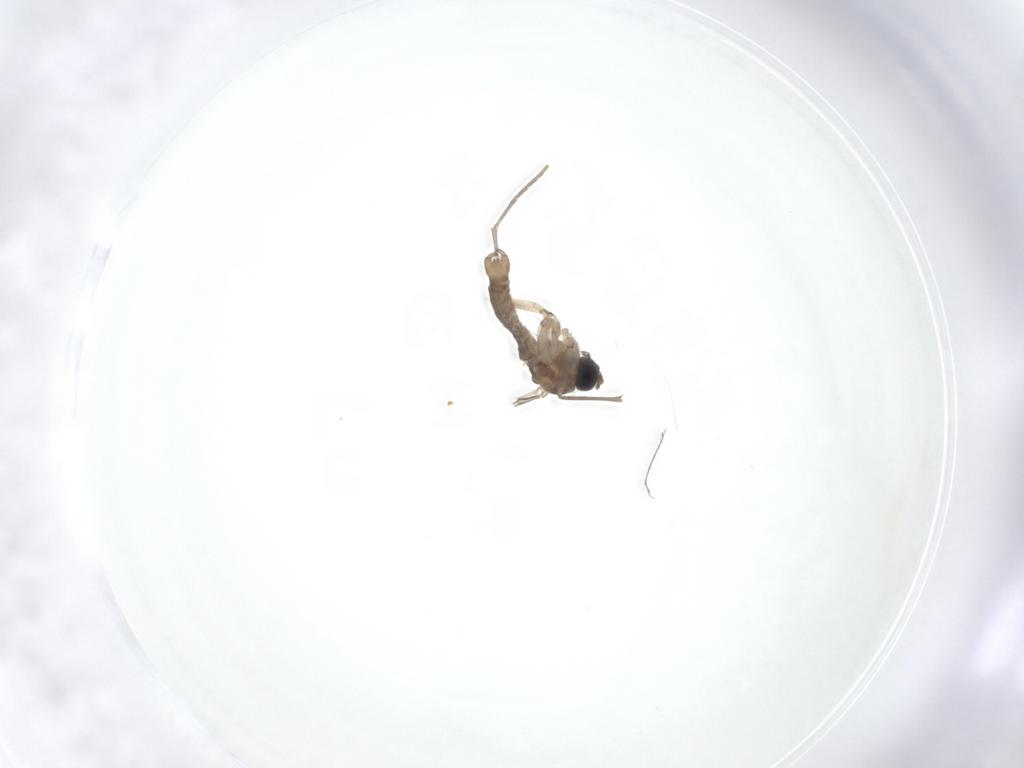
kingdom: Animalia
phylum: Arthropoda
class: Insecta
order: Diptera
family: Sciaridae
